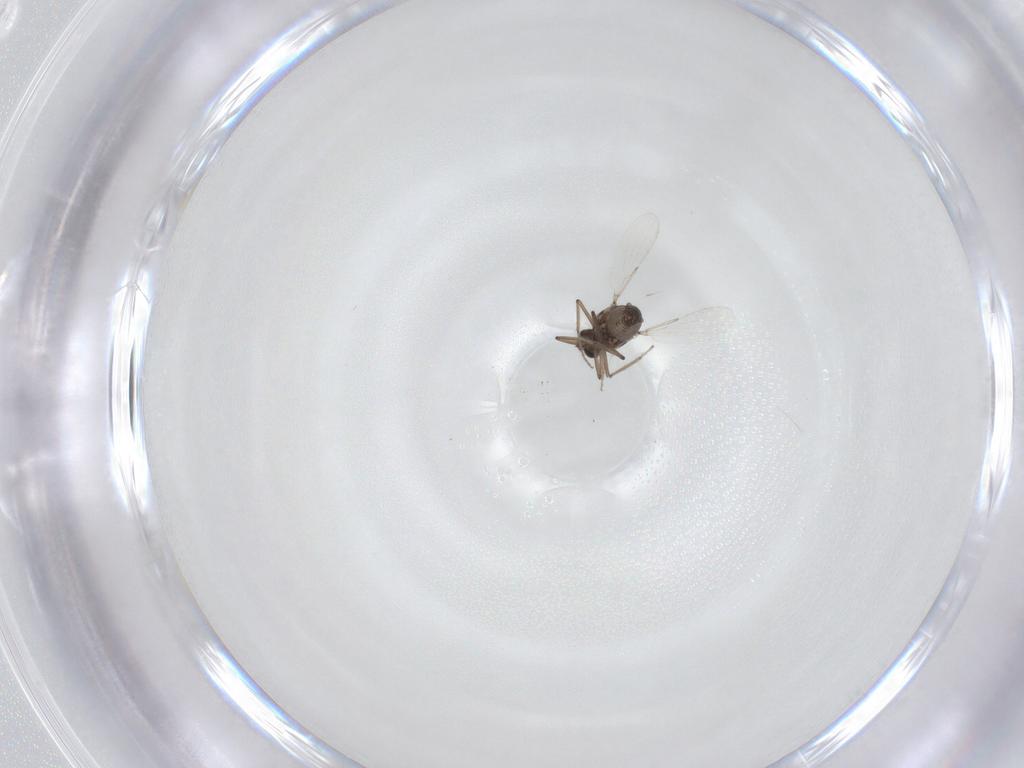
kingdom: Animalia
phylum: Arthropoda
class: Insecta
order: Diptera
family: Ceratopogonidae
